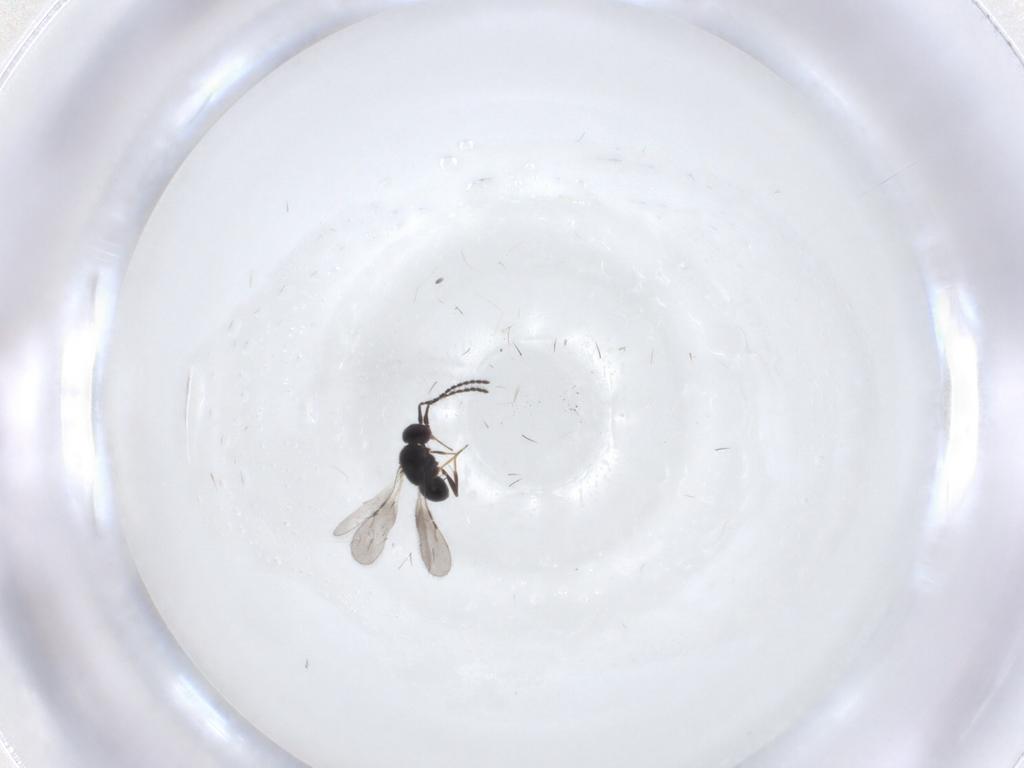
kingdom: Animalia
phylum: Arthropoda
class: Insecta
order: Hymenoptera
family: Ceraphronidae
